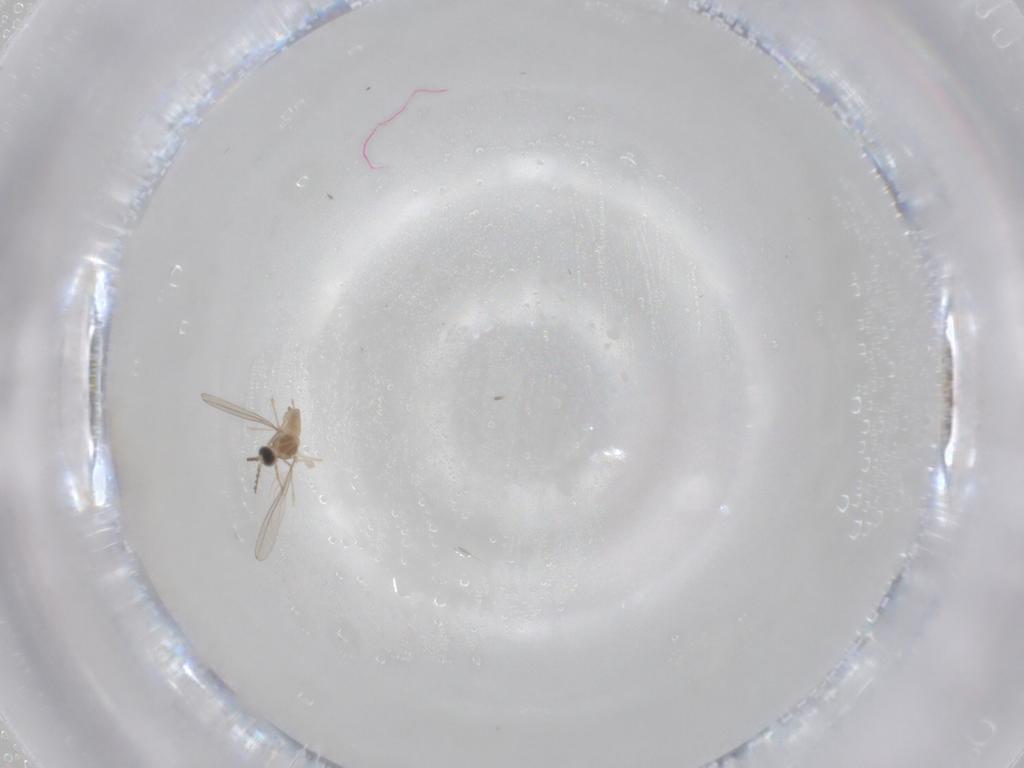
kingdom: Animalia
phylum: Arthropoda
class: Insecta
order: Diptera
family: Cecidomyiidae
